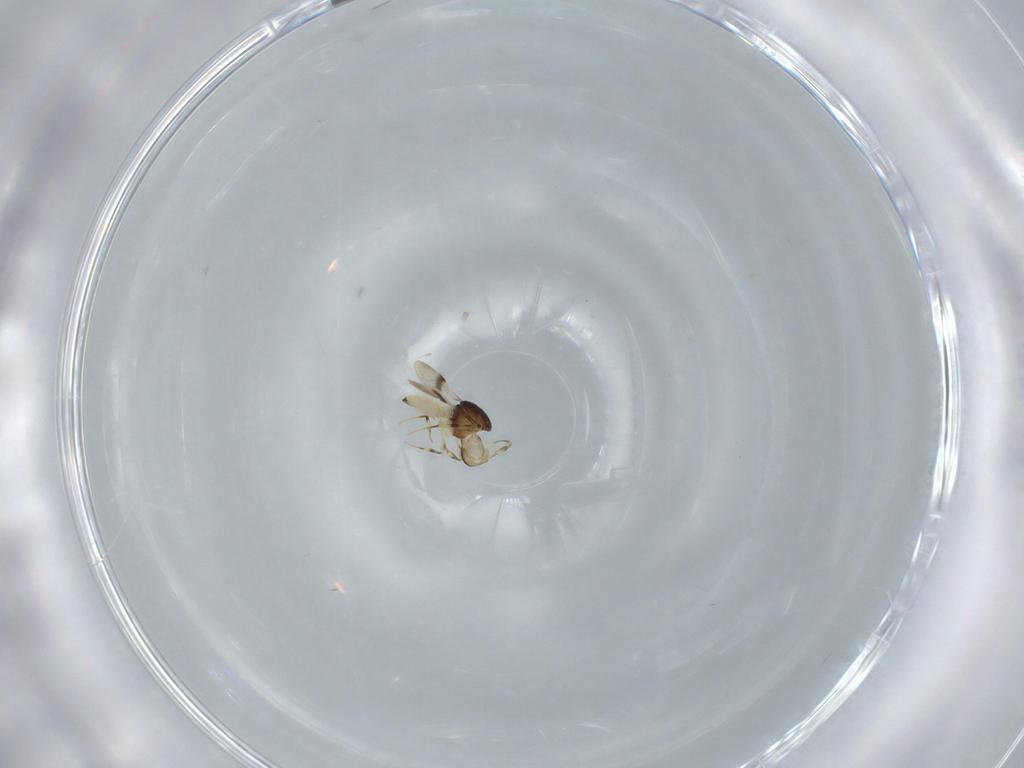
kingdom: Animalia
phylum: Arthropoda
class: Insecta
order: Hymenoptera
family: Scelionidae
